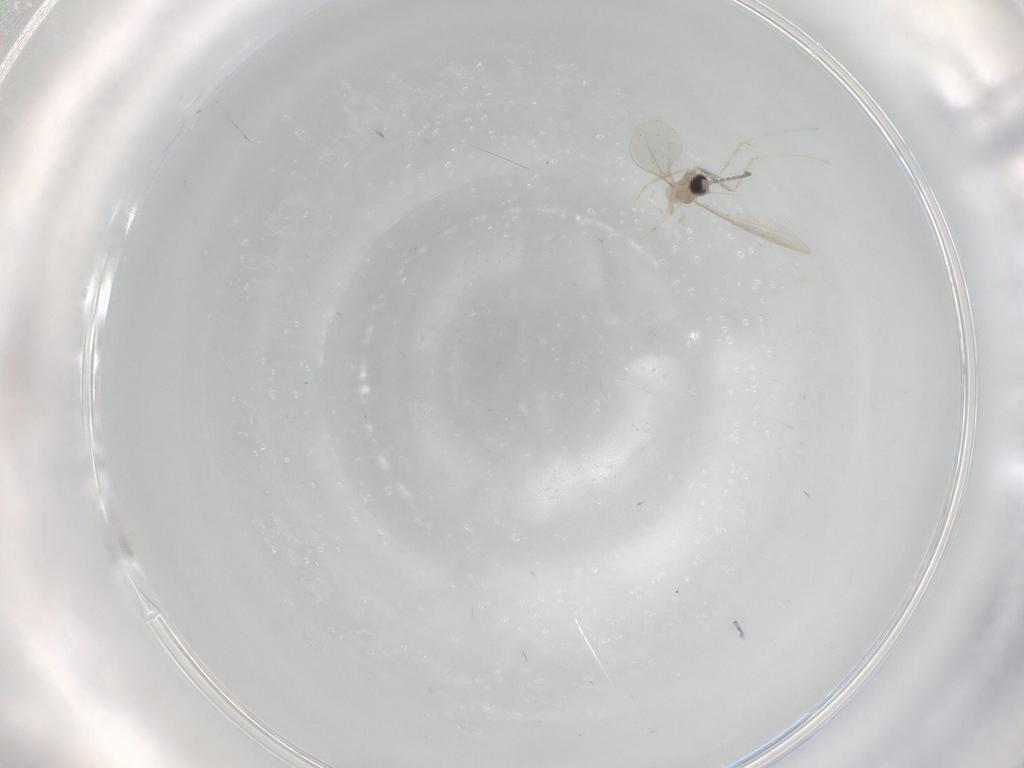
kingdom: Animalia
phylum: Arthropoda
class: Insecta
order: Diptera
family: Cecidomyiidae
